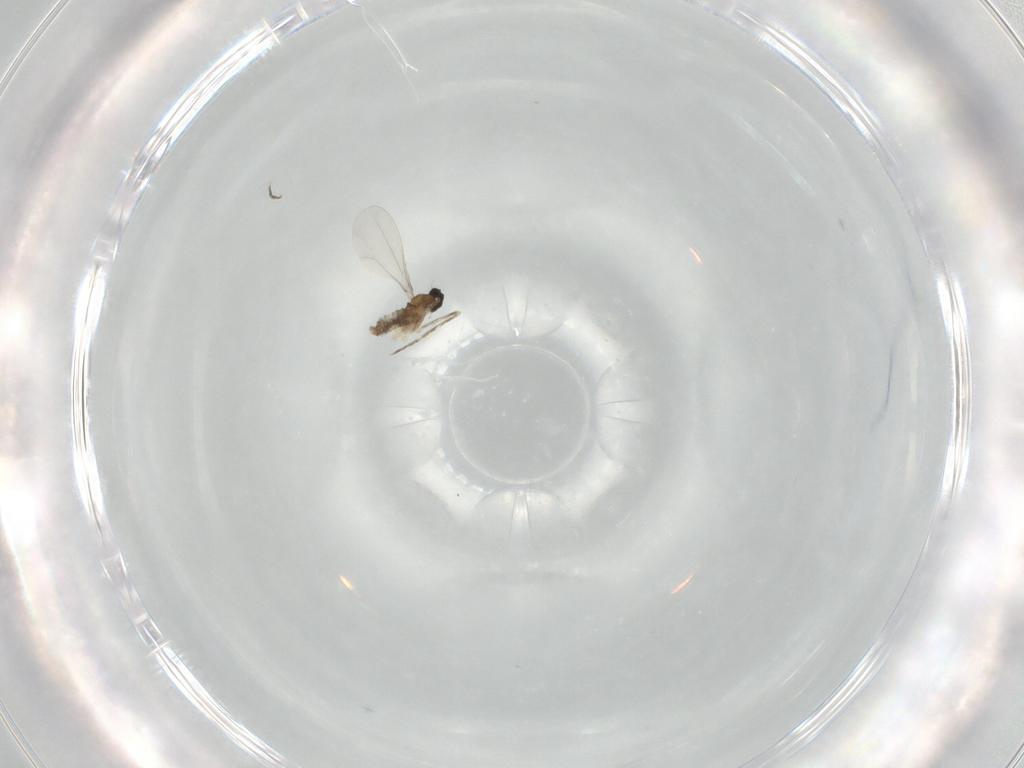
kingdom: Animalia
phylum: Arthropoda
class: Insecta
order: Diptera
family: Cecidomyiidae
